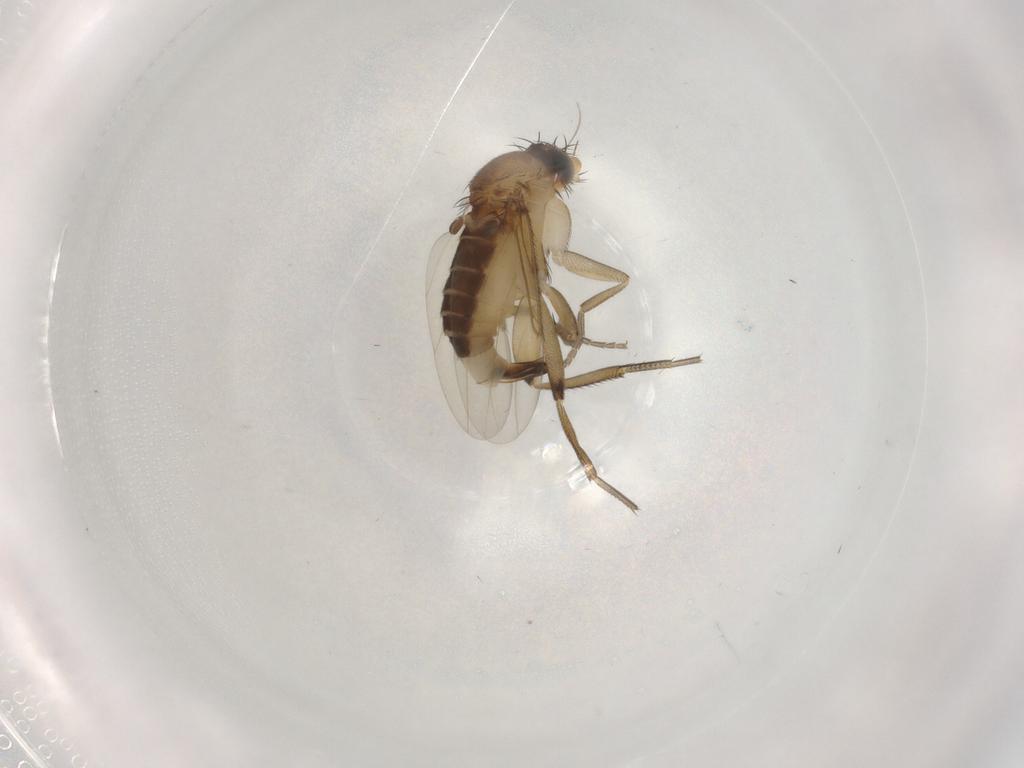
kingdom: Animalia
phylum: Arthropoda
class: Insecta
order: Diptera
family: Phoridae
